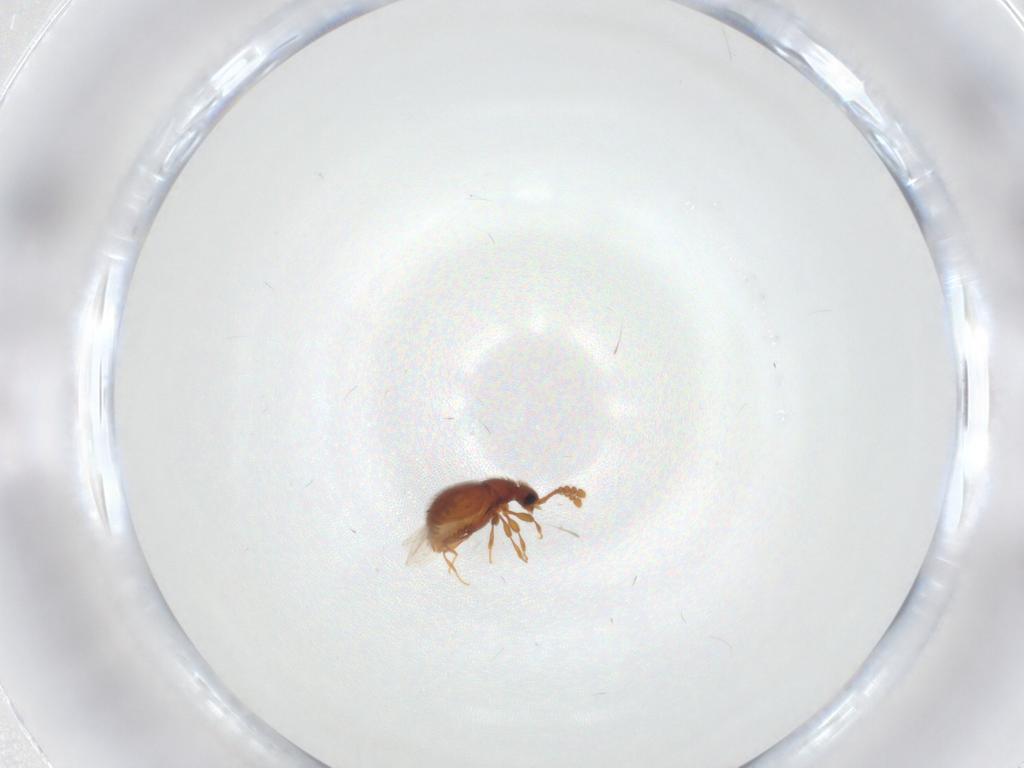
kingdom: Animalia
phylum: Arthropoda
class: Insecta
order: Coleoptera
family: Chrysomelidae
